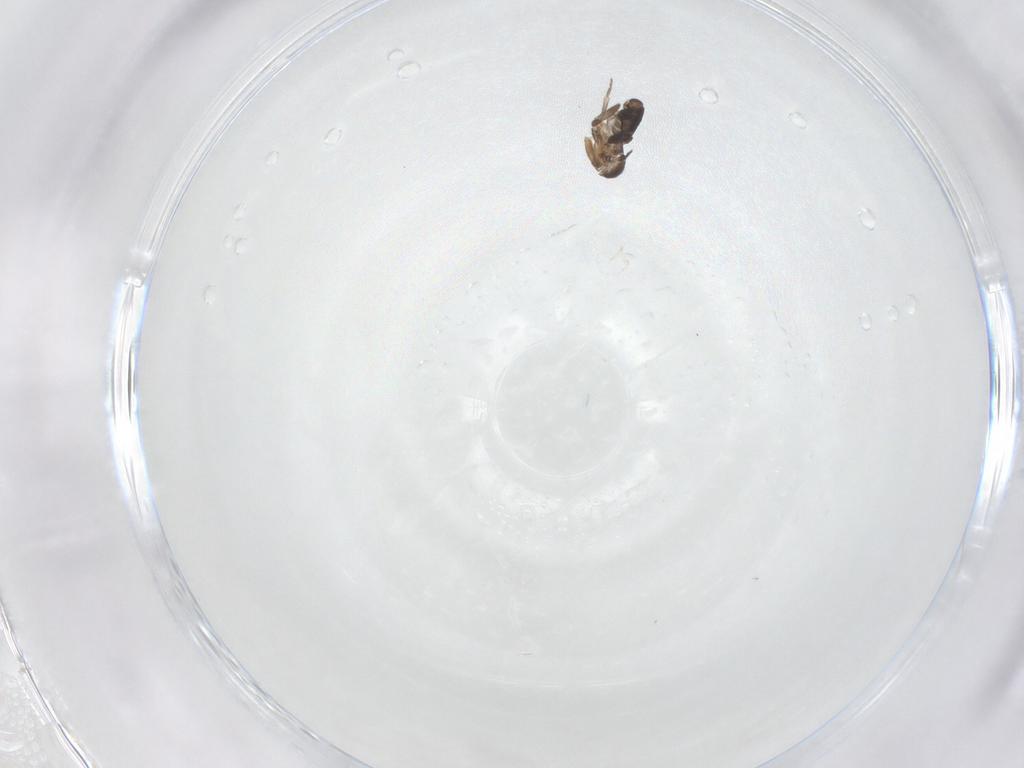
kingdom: Animalia
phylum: Arthropoda
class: Insecta
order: Diptera
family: Phoridae
